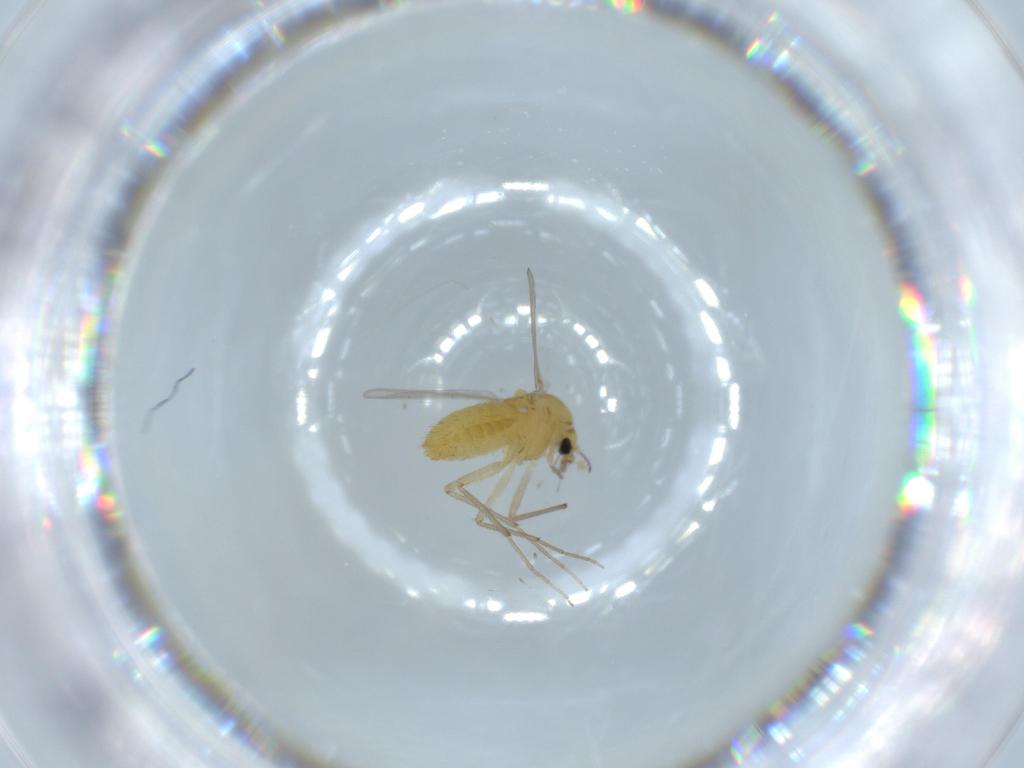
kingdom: Animalia
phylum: Arthropoda
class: Insecta
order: Diptera
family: Chironomidae
